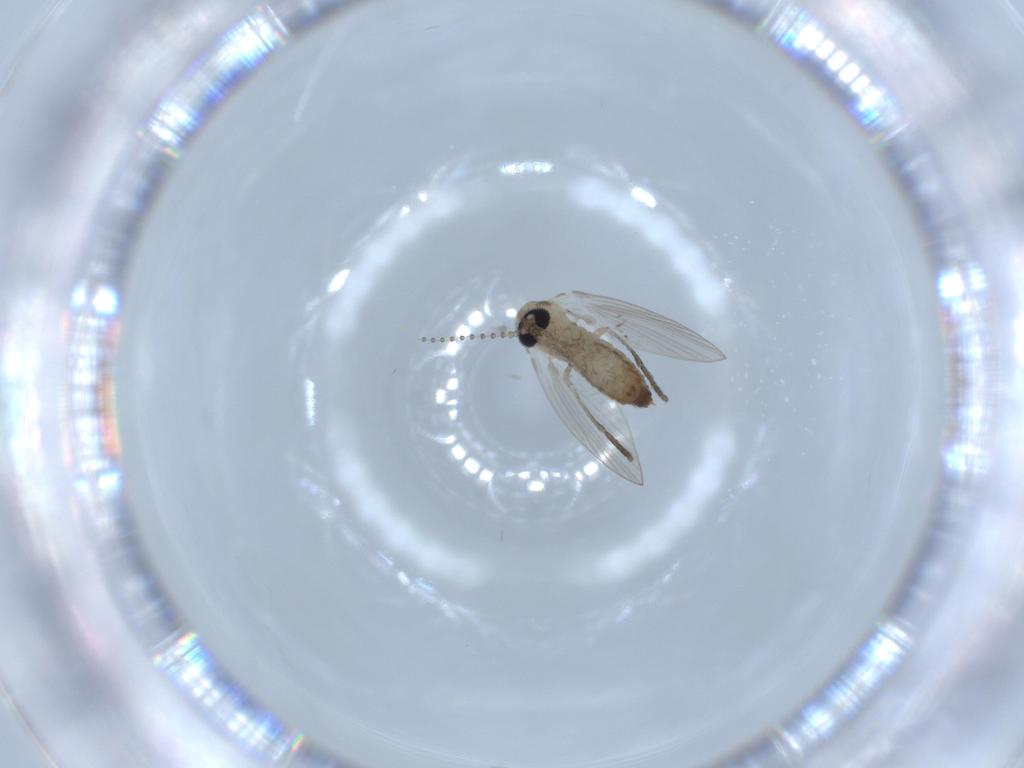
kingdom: Animalia
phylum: Arthropoda
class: Insecta
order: Diptera
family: Psychodidae
